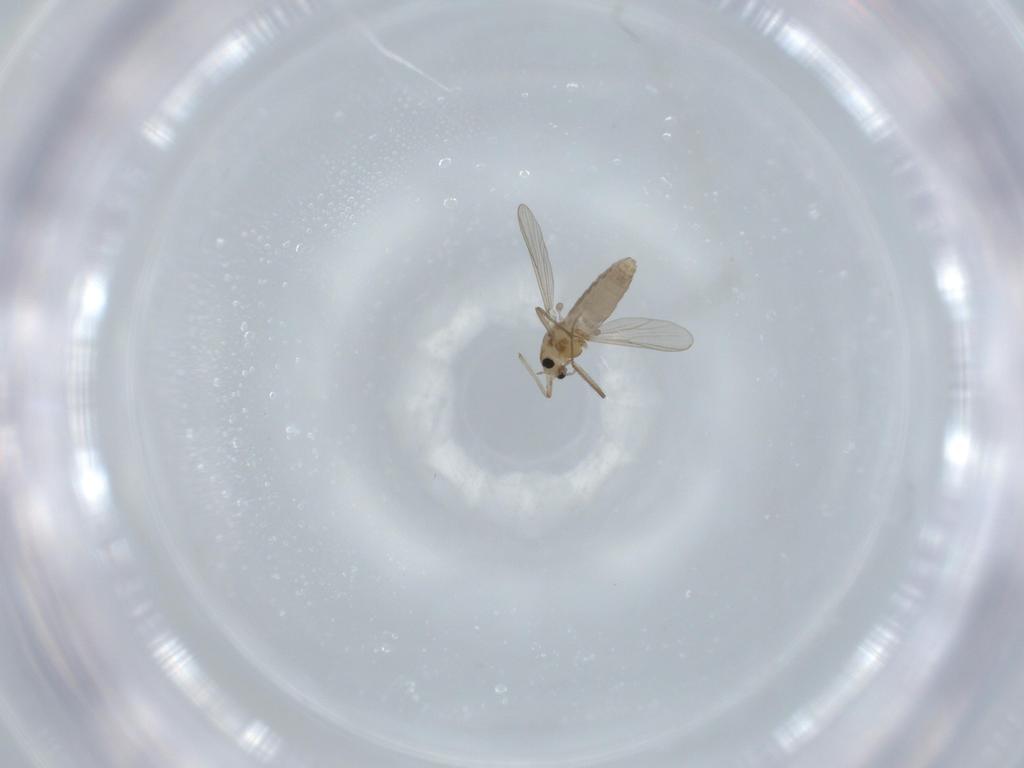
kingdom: Animalia
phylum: Arthropoda
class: Insecta
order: Diptera
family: Chironomidae
